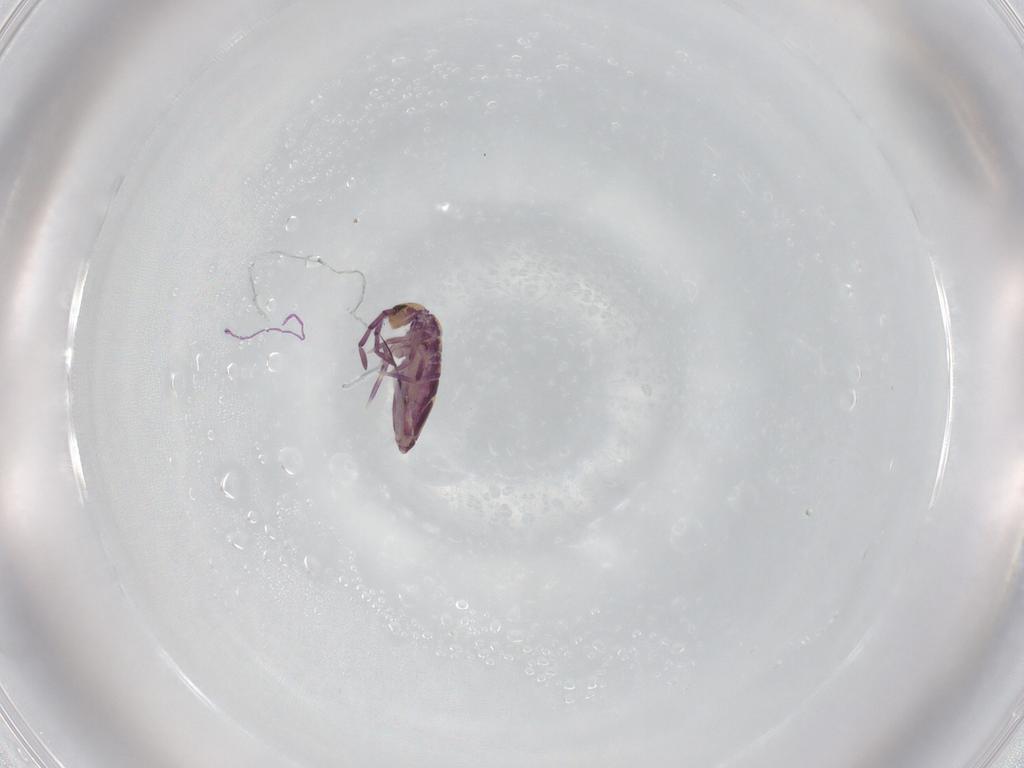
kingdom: Animalia
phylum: Arthropoda
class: Collembola
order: Entomobryomorpha
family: Entomobryidae
